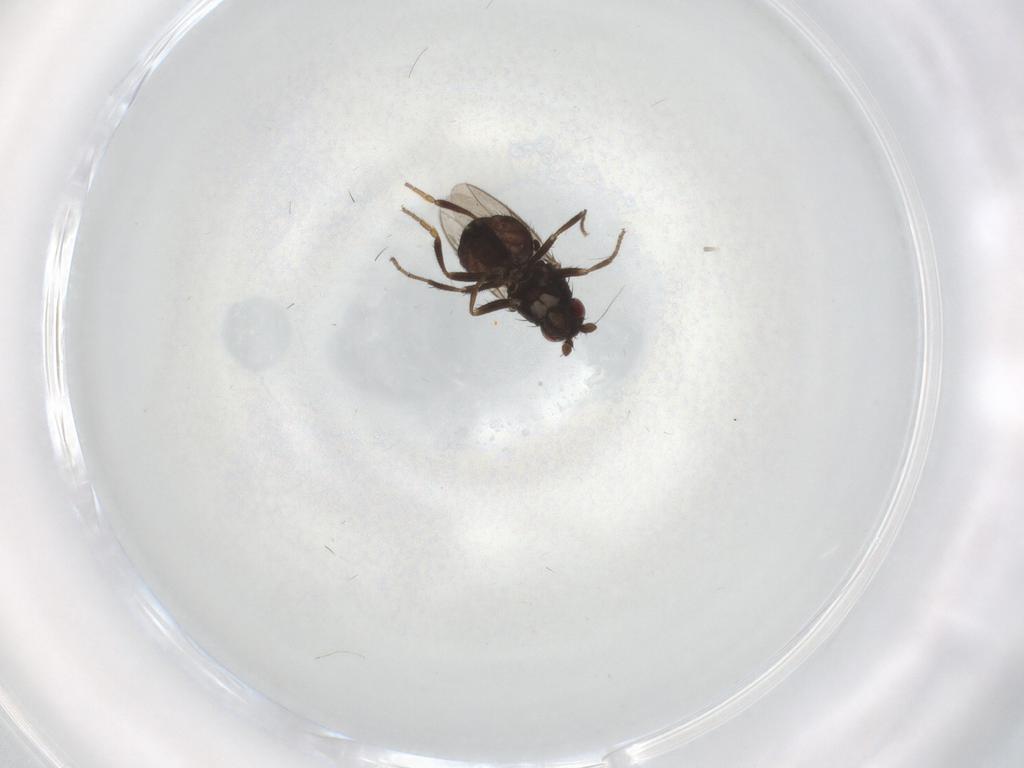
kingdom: Animalia
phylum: Arthropoda
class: Insecta
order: Diptera
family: Sphaeroceridae
